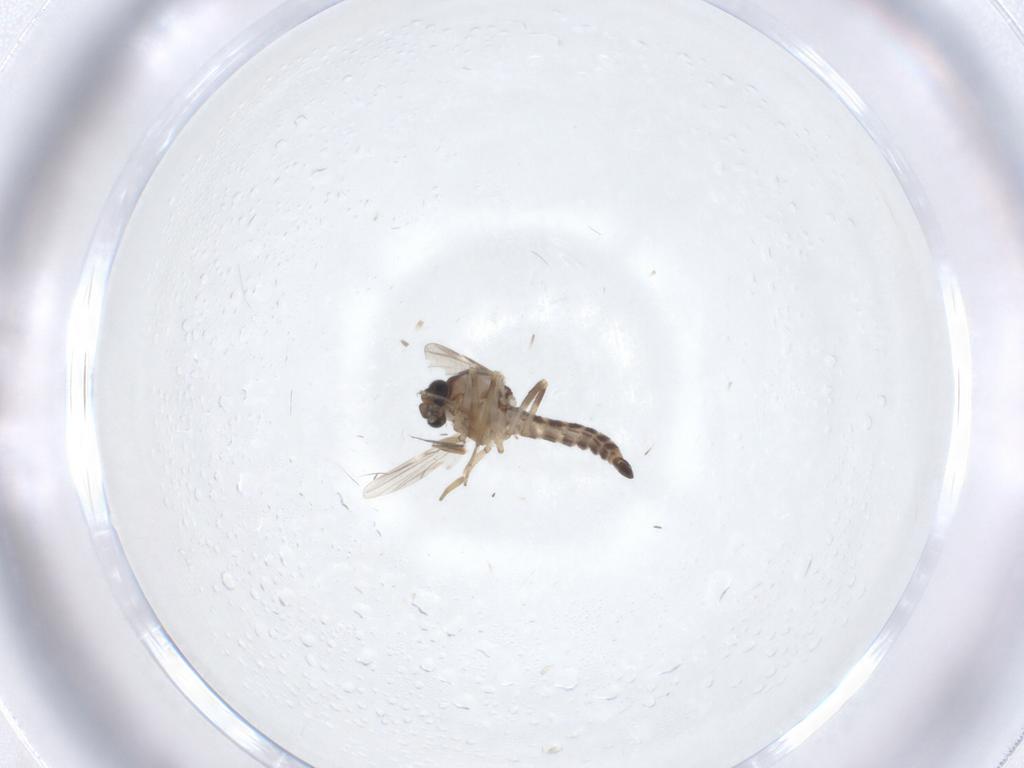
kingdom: Animalia
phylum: Arthropoda
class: Insecta
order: Diptera
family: Ceratopogonidae
